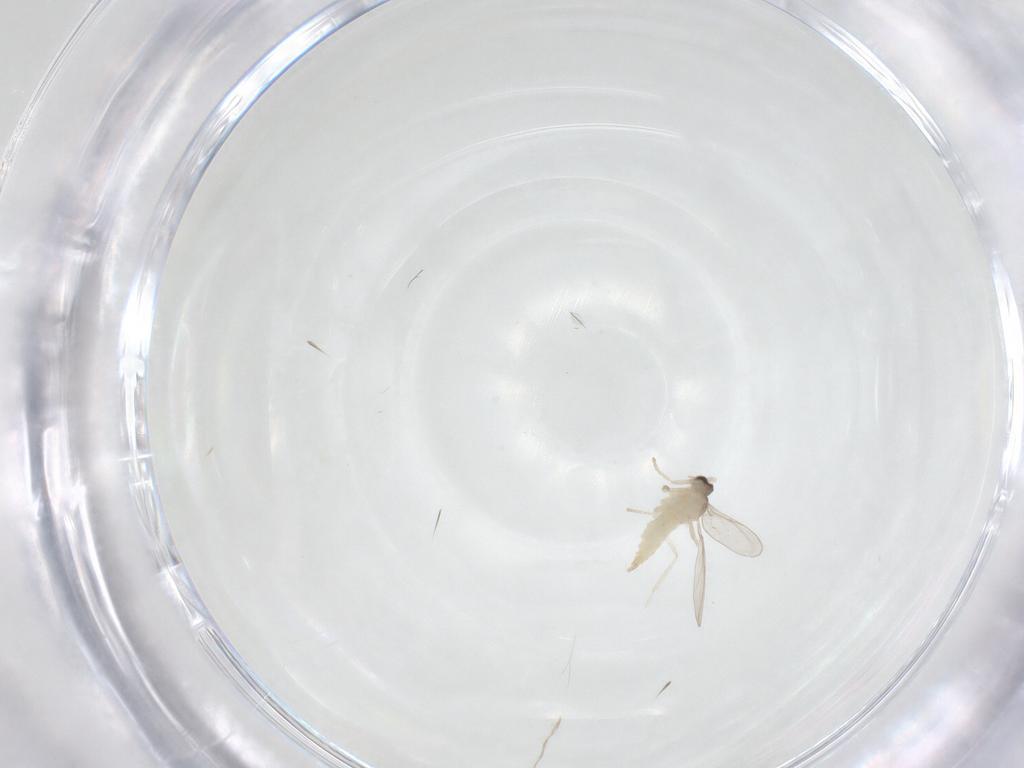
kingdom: Animalia
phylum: Arthropoda
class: Insecta
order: Diptera
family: Cecidomyiidae
